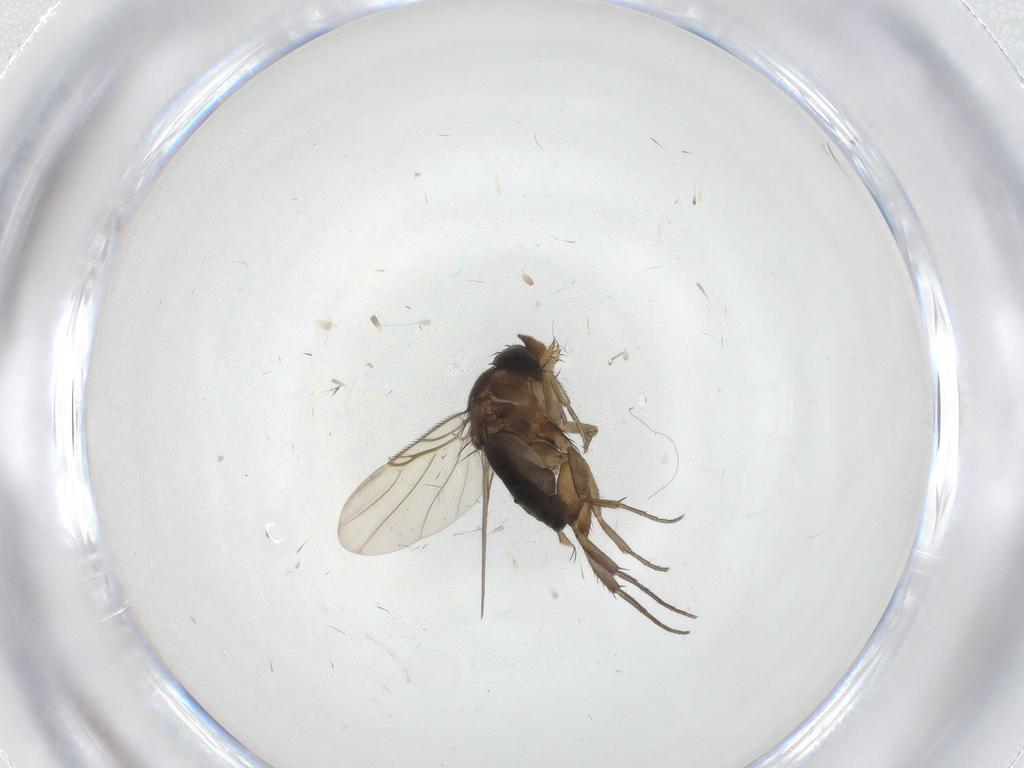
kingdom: Animalia
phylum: Arthropoda
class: Insecta
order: Diptera
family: Phoridae
